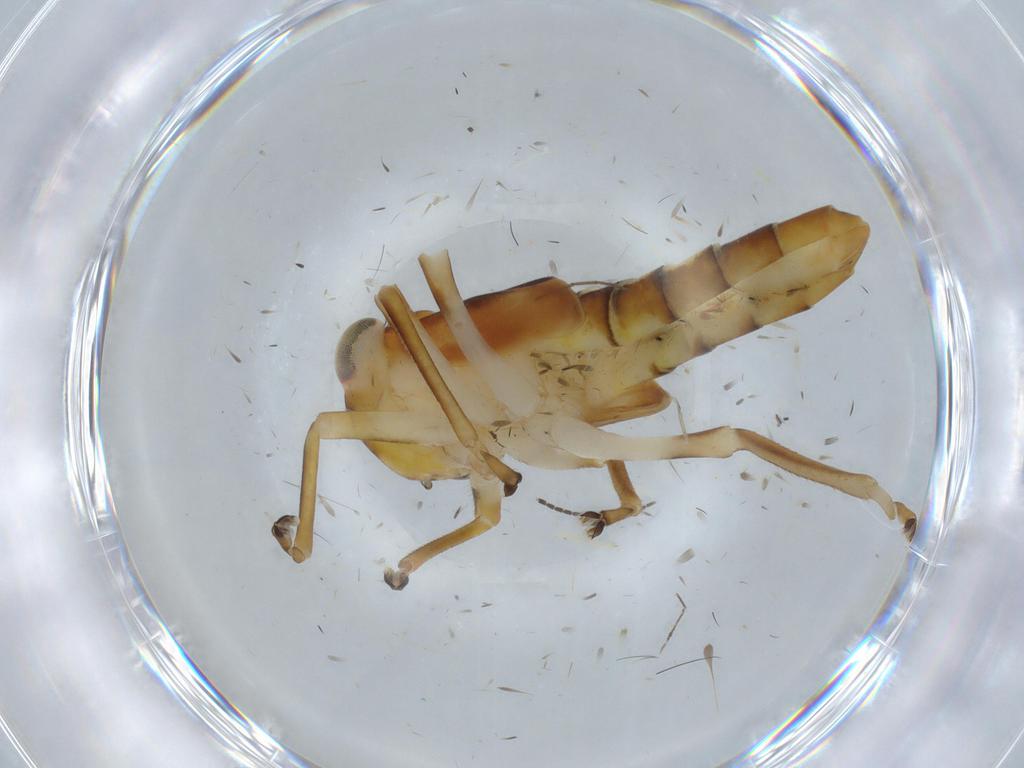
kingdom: Animalia
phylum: Arthropoda
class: Insecta
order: Hemiptera
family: Cicadellidae
